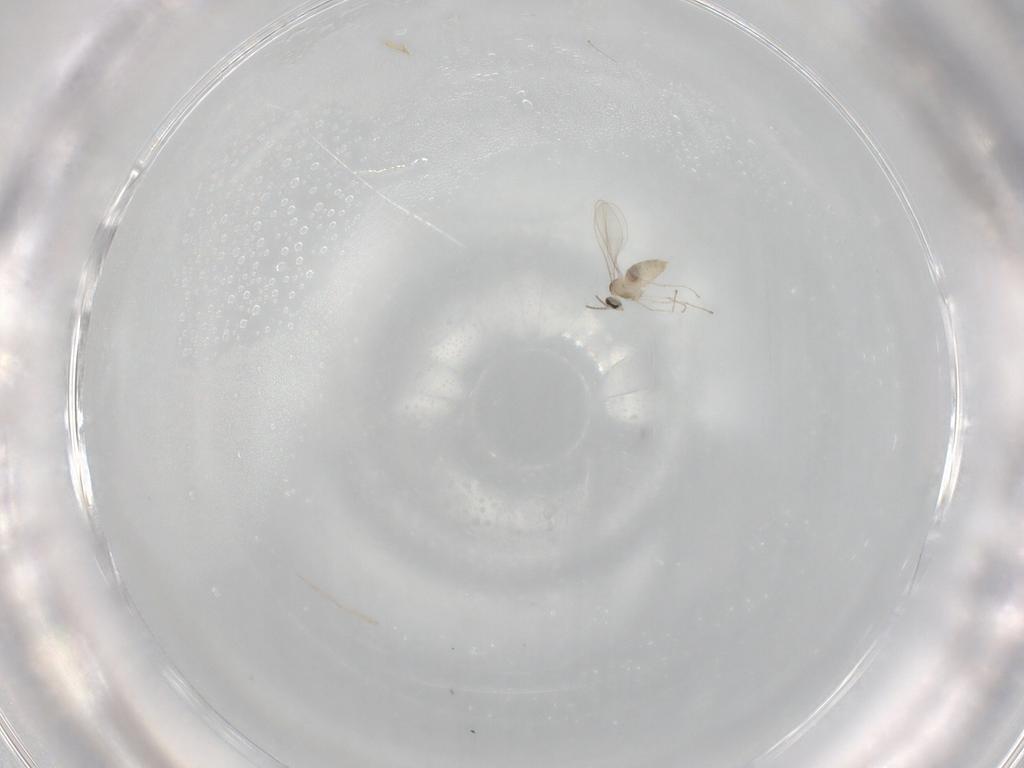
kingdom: Animalia
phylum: Arthropoda
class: Insecta
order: Diptera
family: Cecidomyiidae
